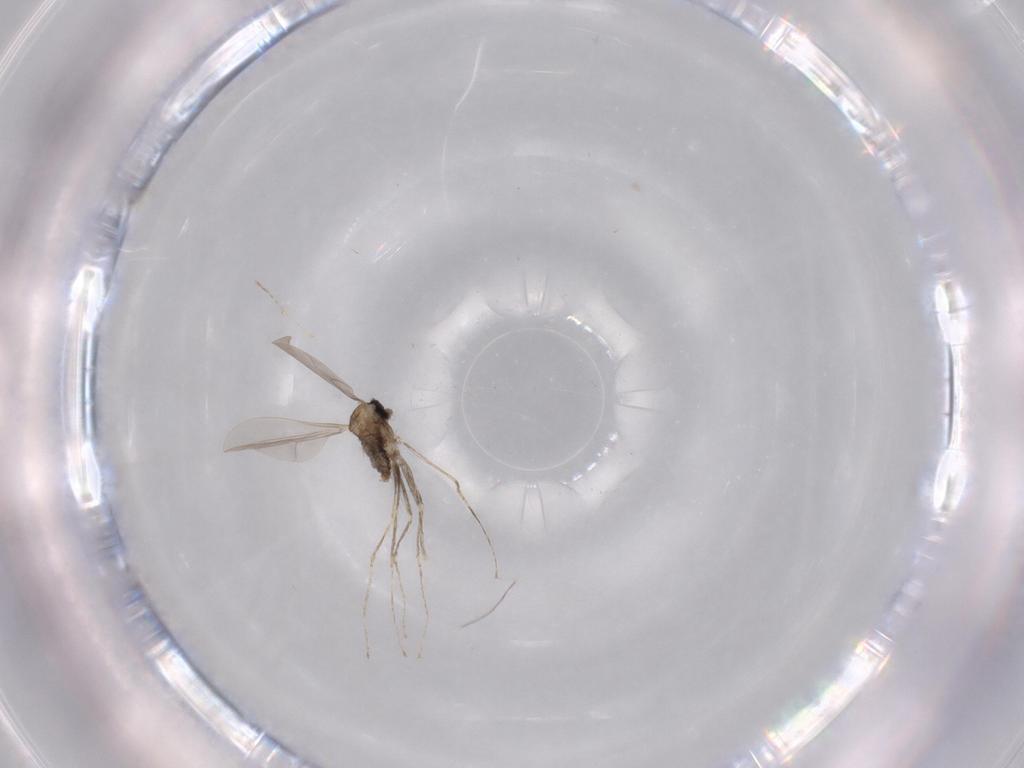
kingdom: Animalia
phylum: Arthropoda
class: Insecta
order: Diptera
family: Cecidomyiidae
